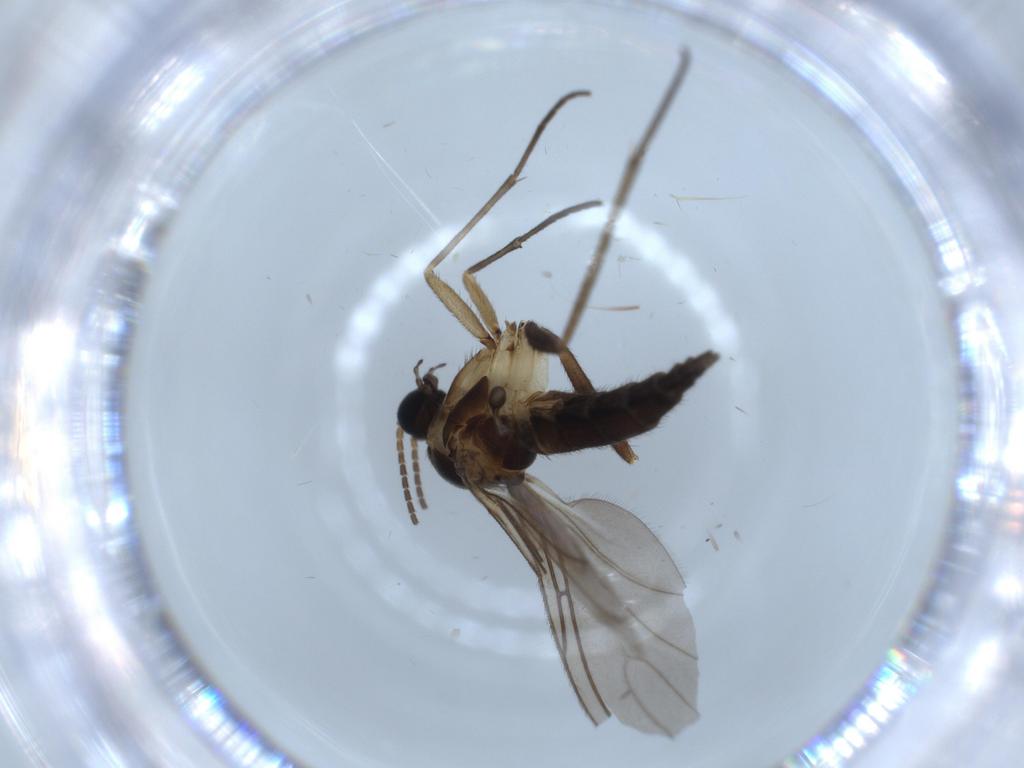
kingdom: Animalia
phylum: Arthropoda
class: Insecta
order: Diptera
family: Sciaridae
